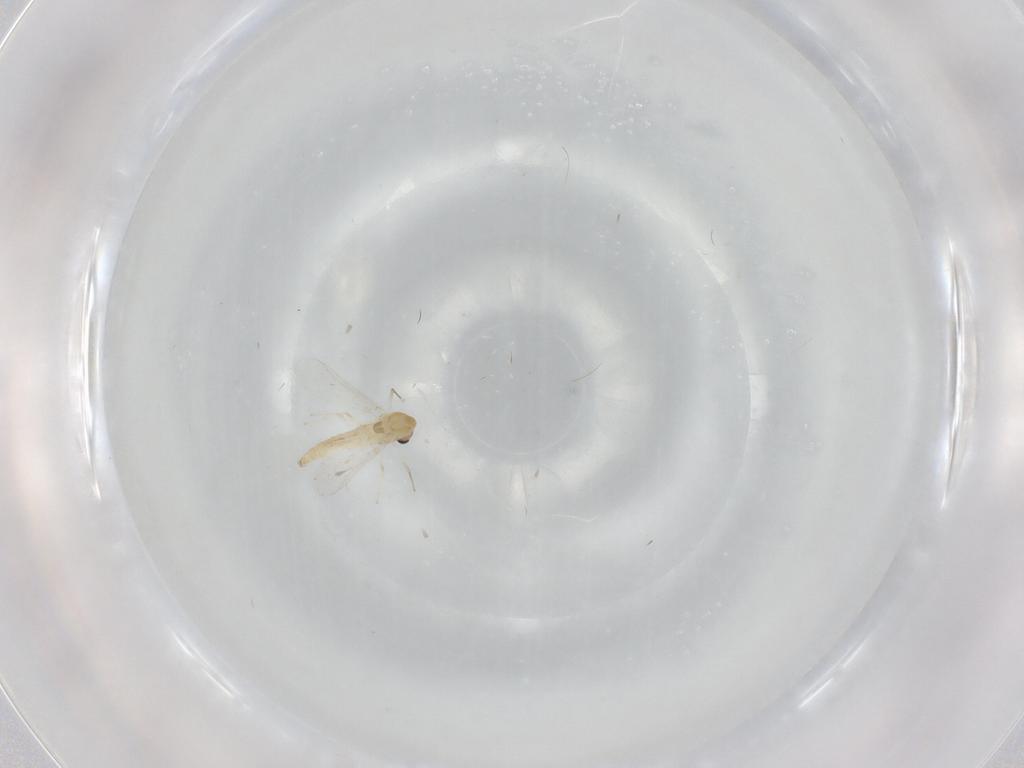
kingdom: Animalia
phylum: Arthropoda
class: Insecta
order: Diptera
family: Chironomidae
